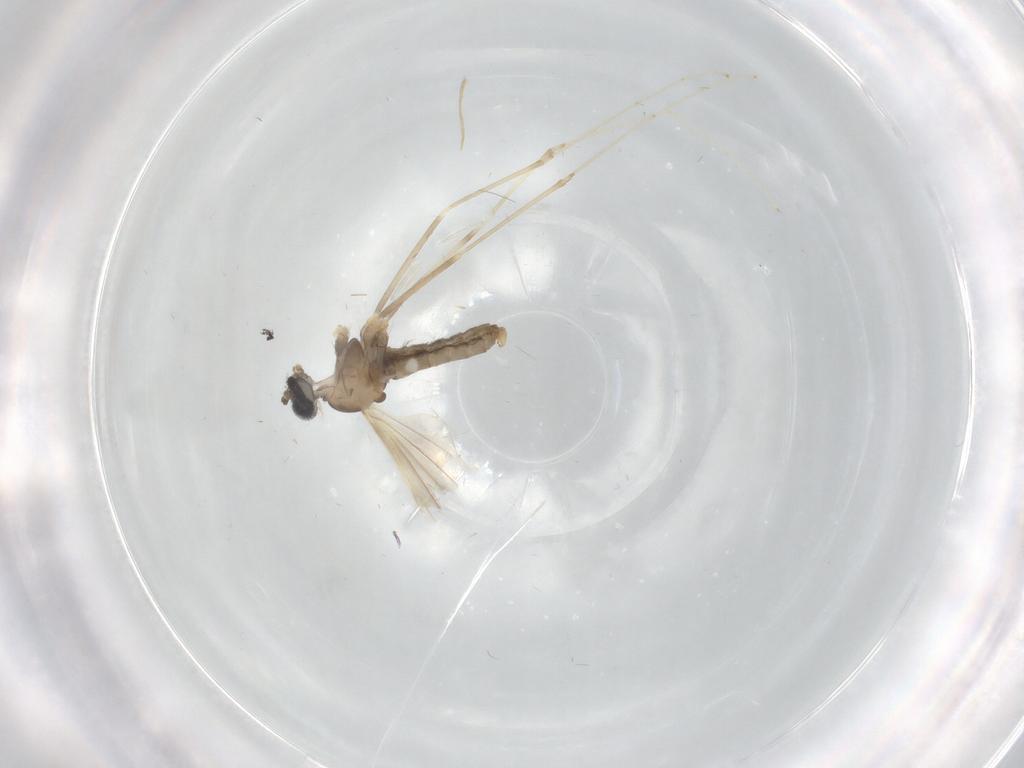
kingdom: Animalia
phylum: Arthropoda
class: Insecta
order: Diptera
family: Cecidomyiidae
